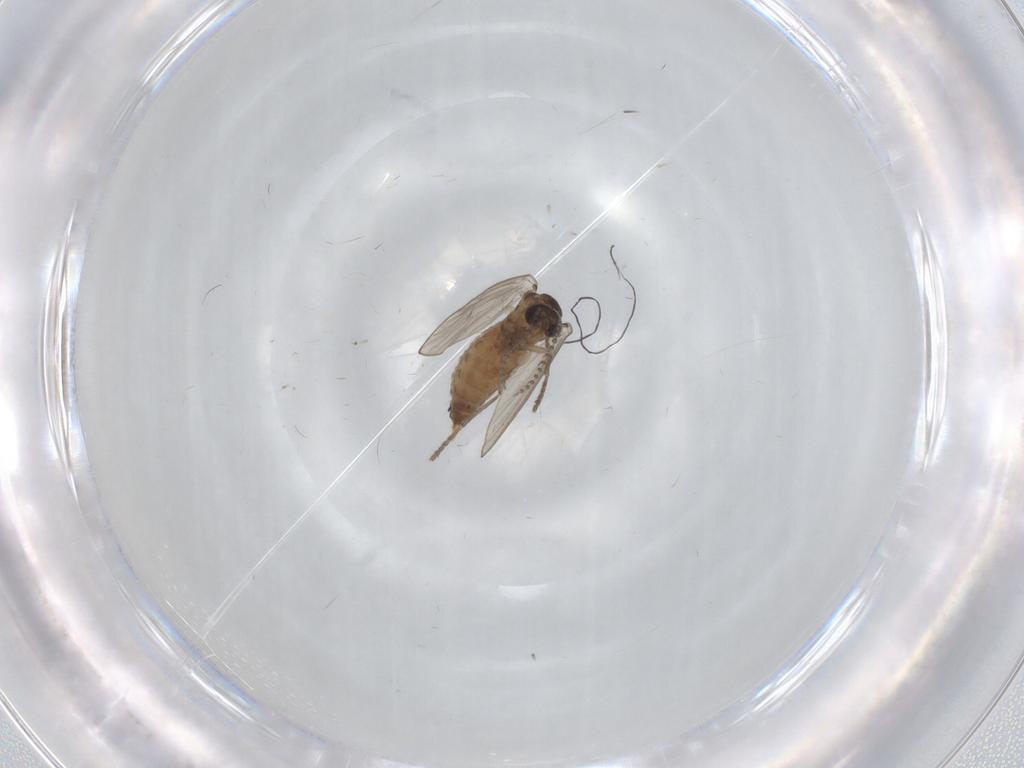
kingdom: Animalia
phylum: Arthropoda
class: Insecta
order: Diptera
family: Psychodidae
